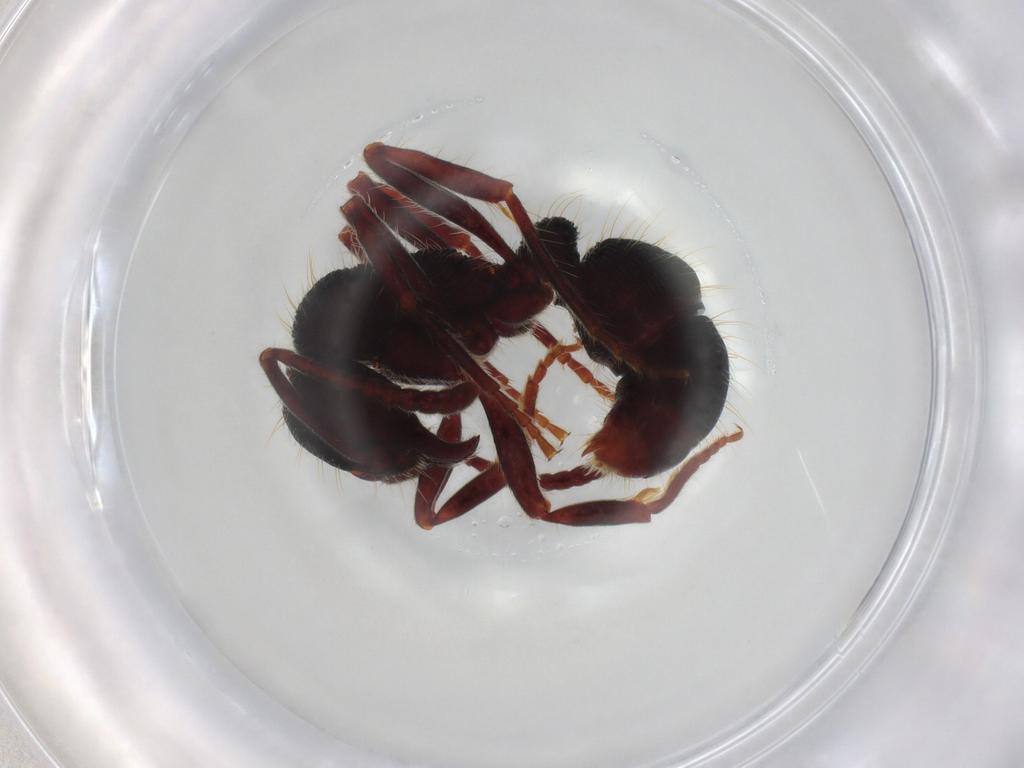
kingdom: Animalia
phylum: Arthropoda
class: Insecta
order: Hymenoptera
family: Formicidae
